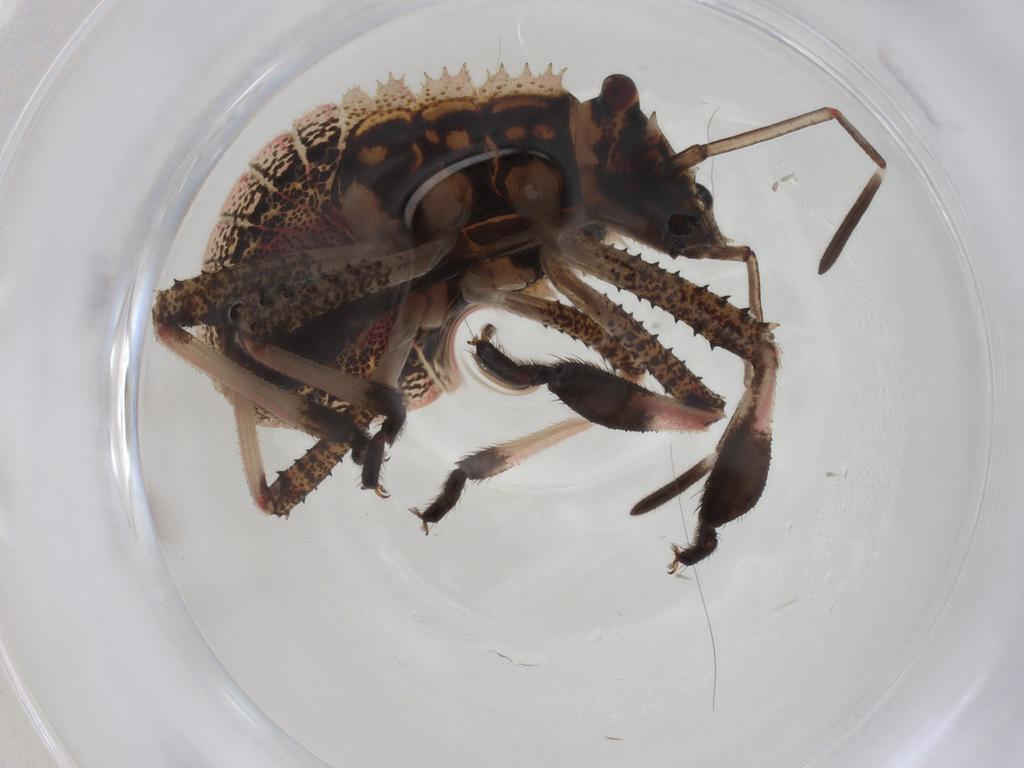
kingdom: Animalia
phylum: Arthropoda
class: Insecta
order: Hemiptera
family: Pentatomidae
